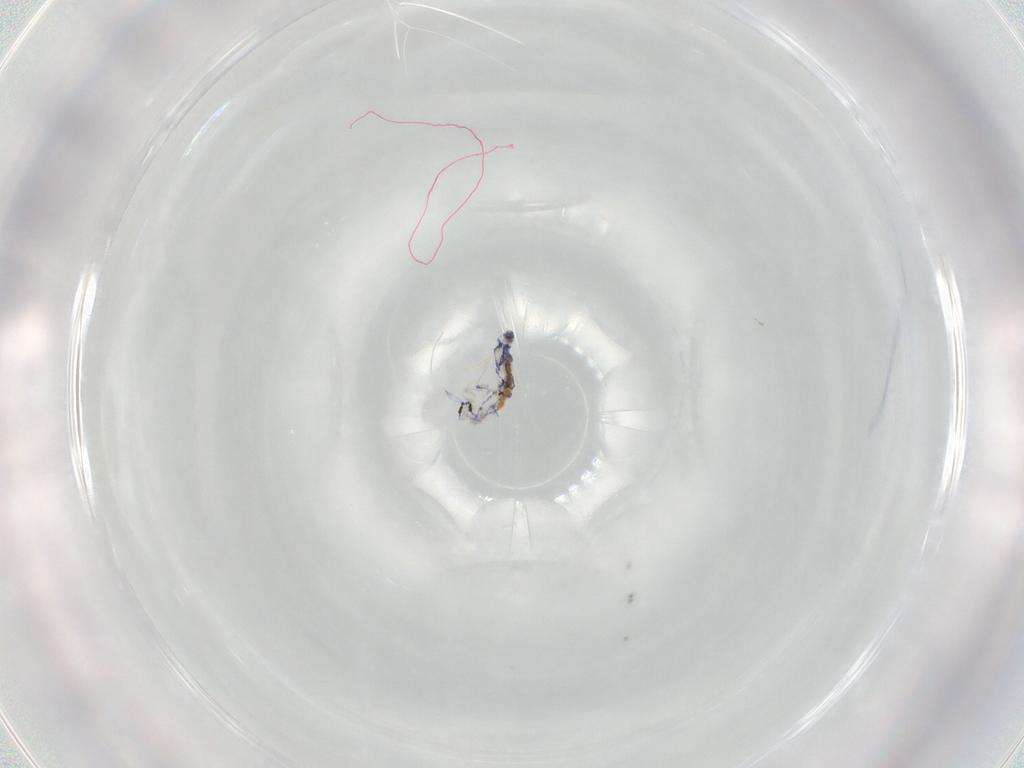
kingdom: Animalia
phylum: Arthropoda
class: Collembola
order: Entomobryomorpha
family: Entomobryidae
